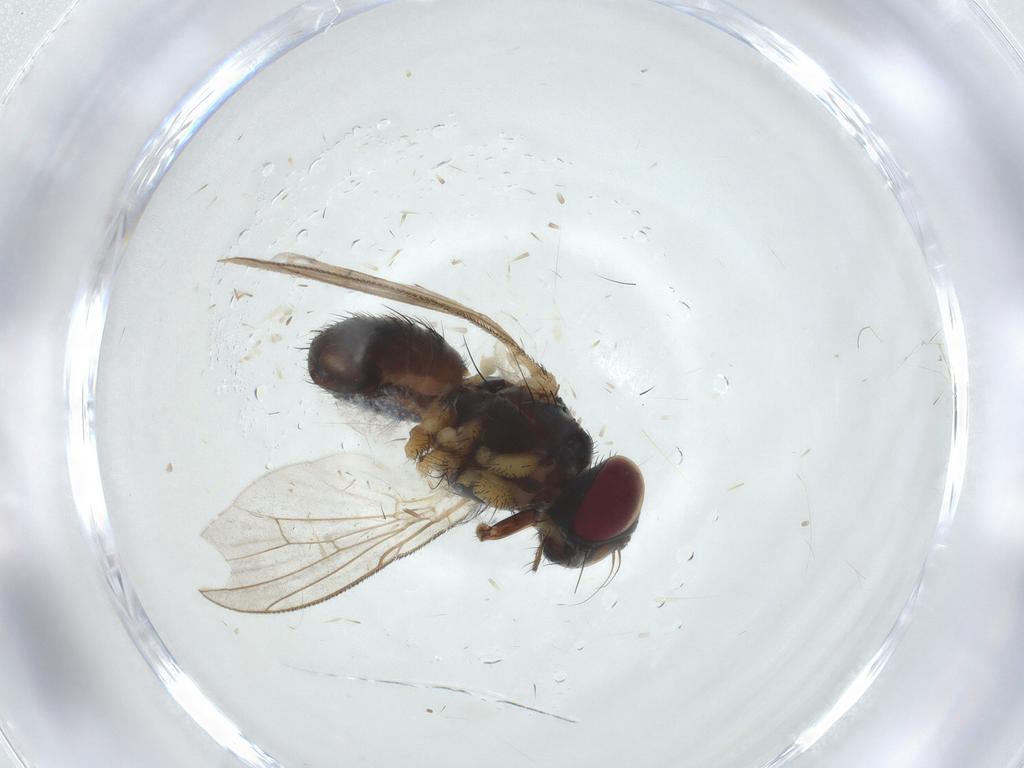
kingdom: Animalia
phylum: Arthropoda
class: Insecta
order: Diptera
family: Muscidae
